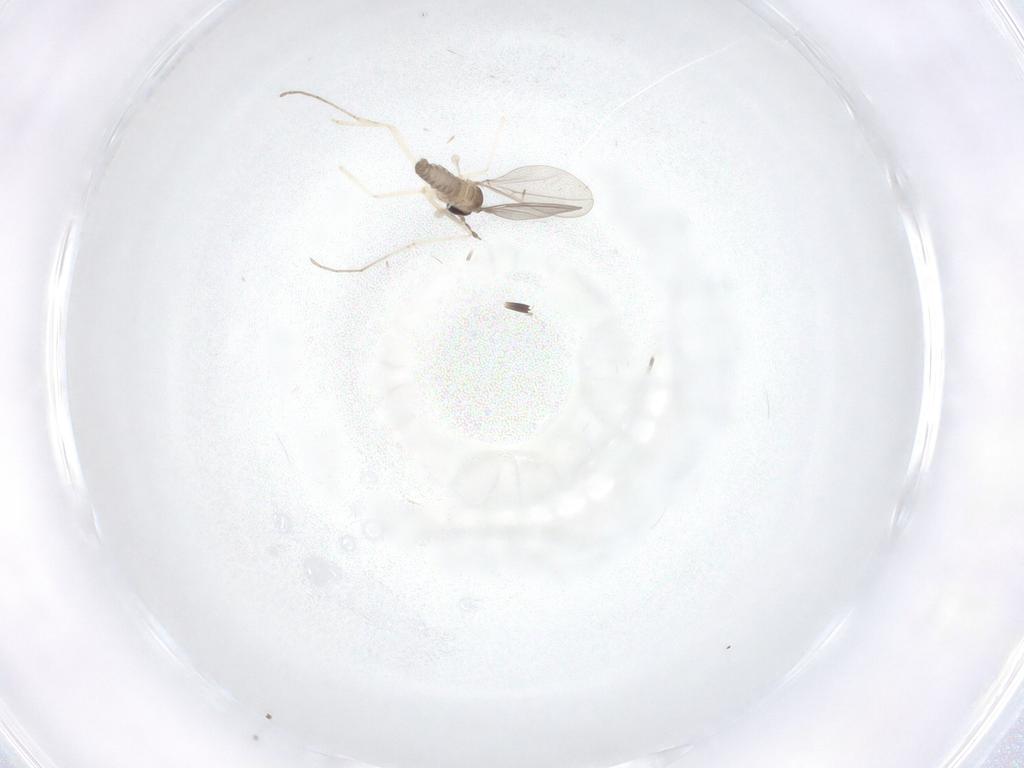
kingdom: Animalia
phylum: Arthropoda
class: Insecta
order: Diptera
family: Cecidomyiidae
